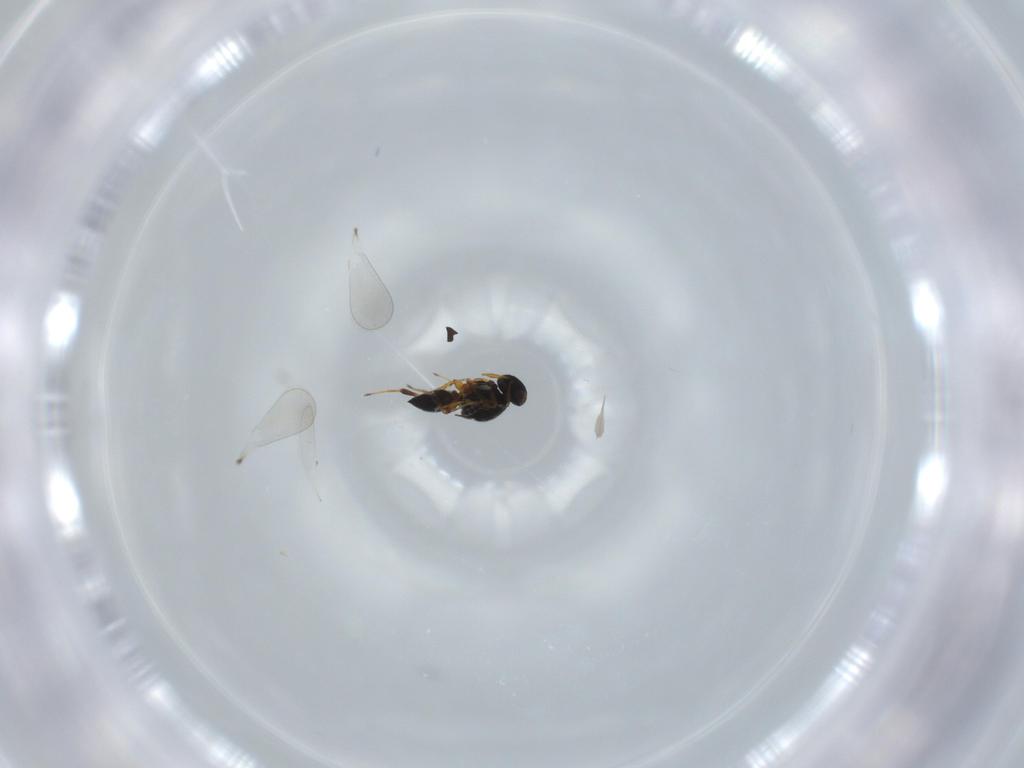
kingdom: Animalia
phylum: Arthropoda
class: Insecta
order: Hymenoptera
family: Platygastridae
